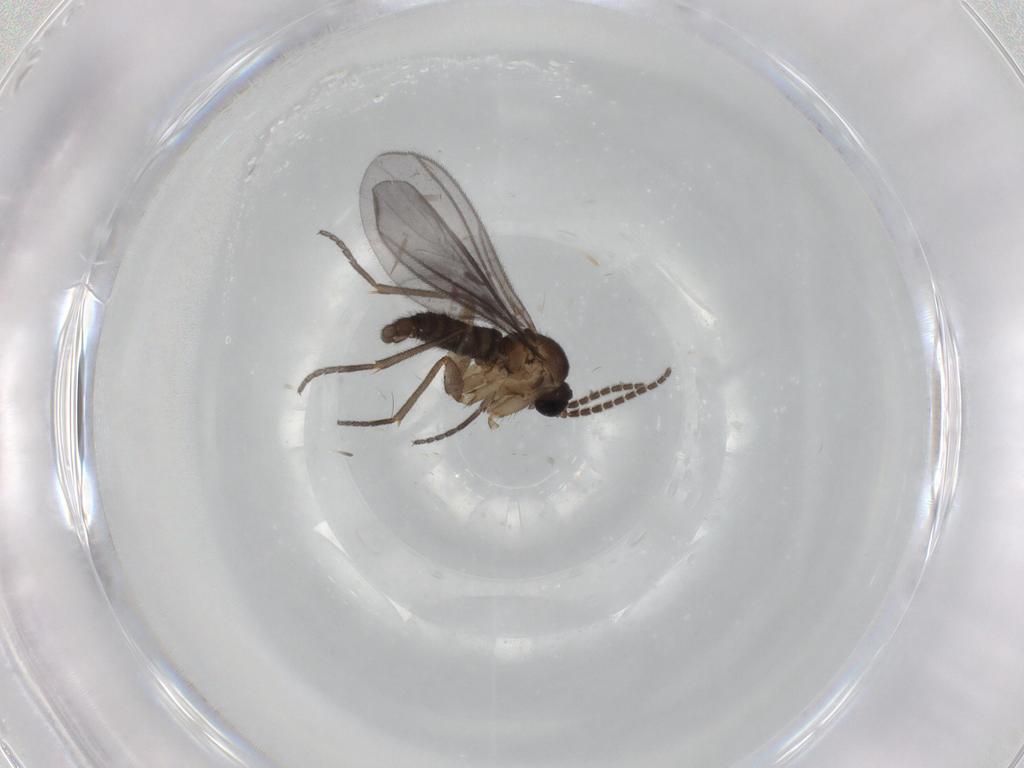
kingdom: Animalia
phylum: Arthropoda
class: Insecta
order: Diptera
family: Sciaridae
